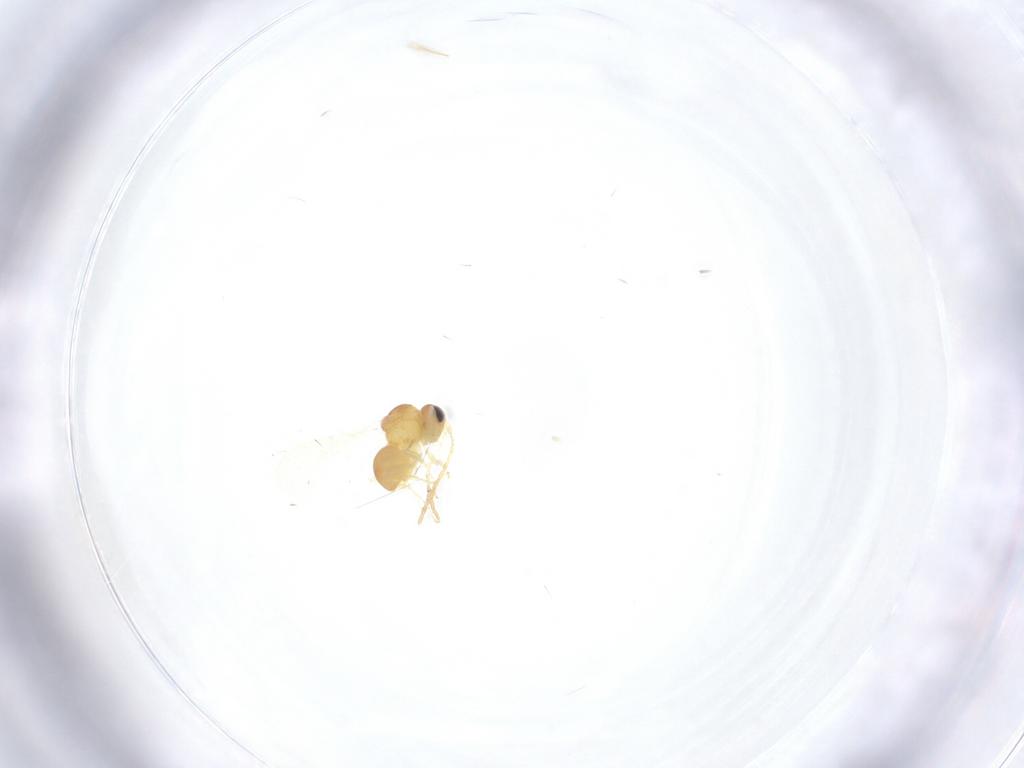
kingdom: Animalia
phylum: Arthropoda
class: Insecta
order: Hymenoptera
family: Figitidae
